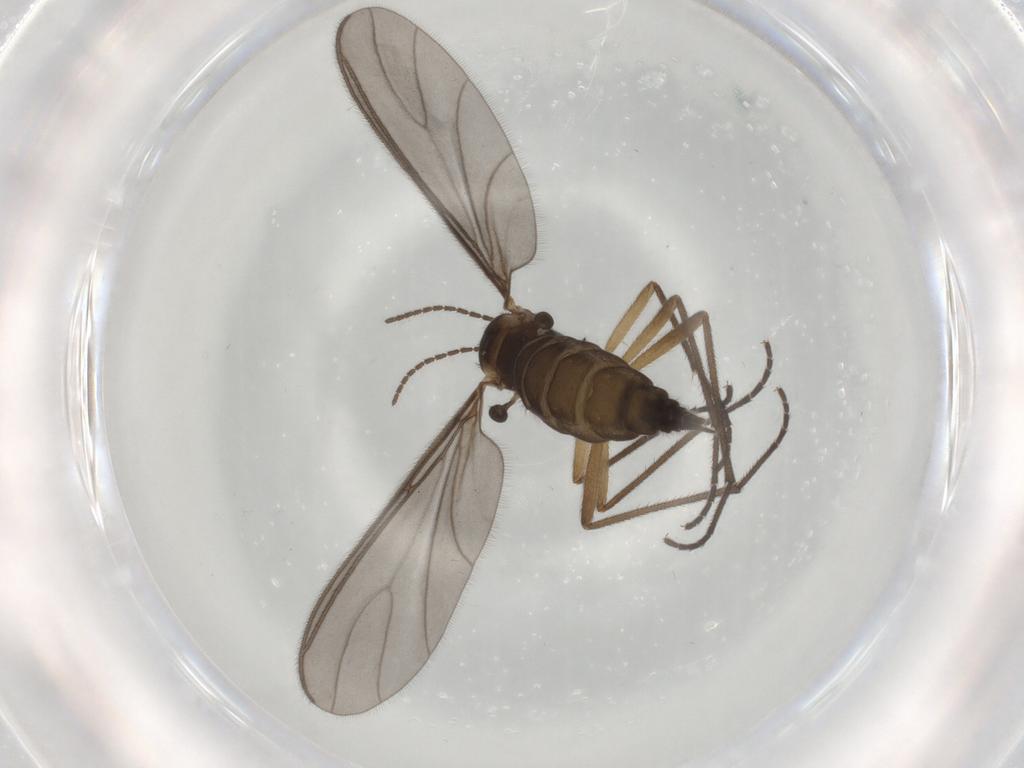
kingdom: Animalia
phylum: Arthropoda
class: Insecta
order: Diptera
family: Sciaridae
